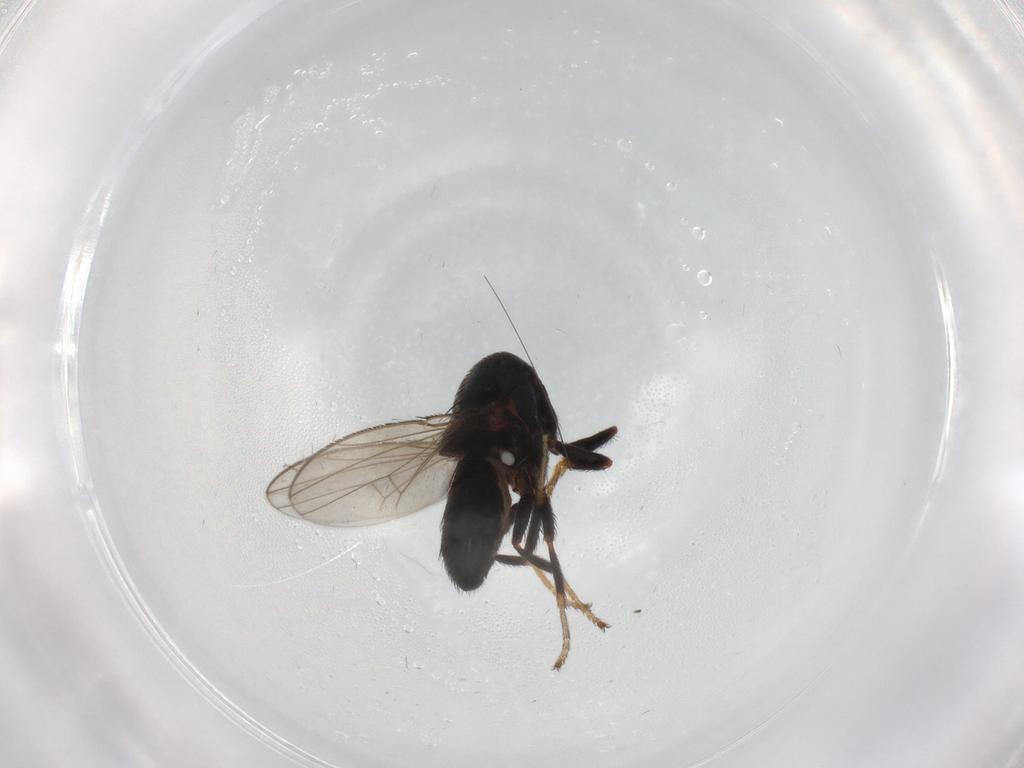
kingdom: Animalia
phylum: Arthropoda
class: Insecta
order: Diptera
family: Ephydridae
